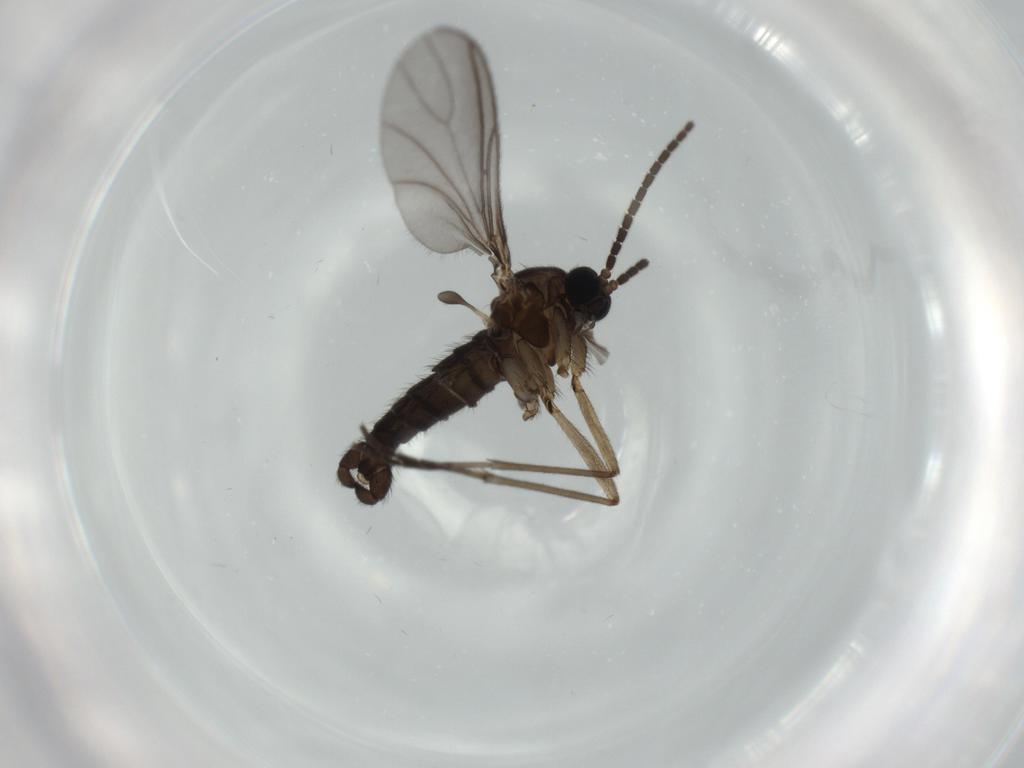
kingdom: Animalia
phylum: Arthropoda
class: Insecta
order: Diptera
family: Sciaridae
